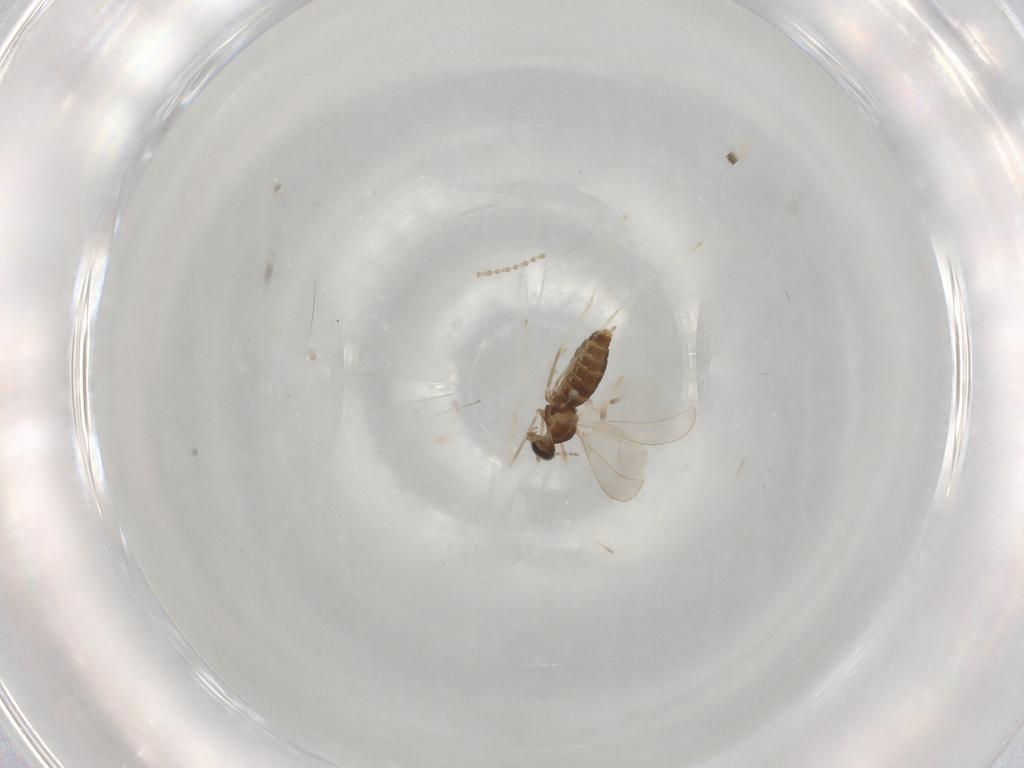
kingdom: Animalia
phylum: Arthropoda
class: Insecta
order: Diptera
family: Cecidomyiidae
